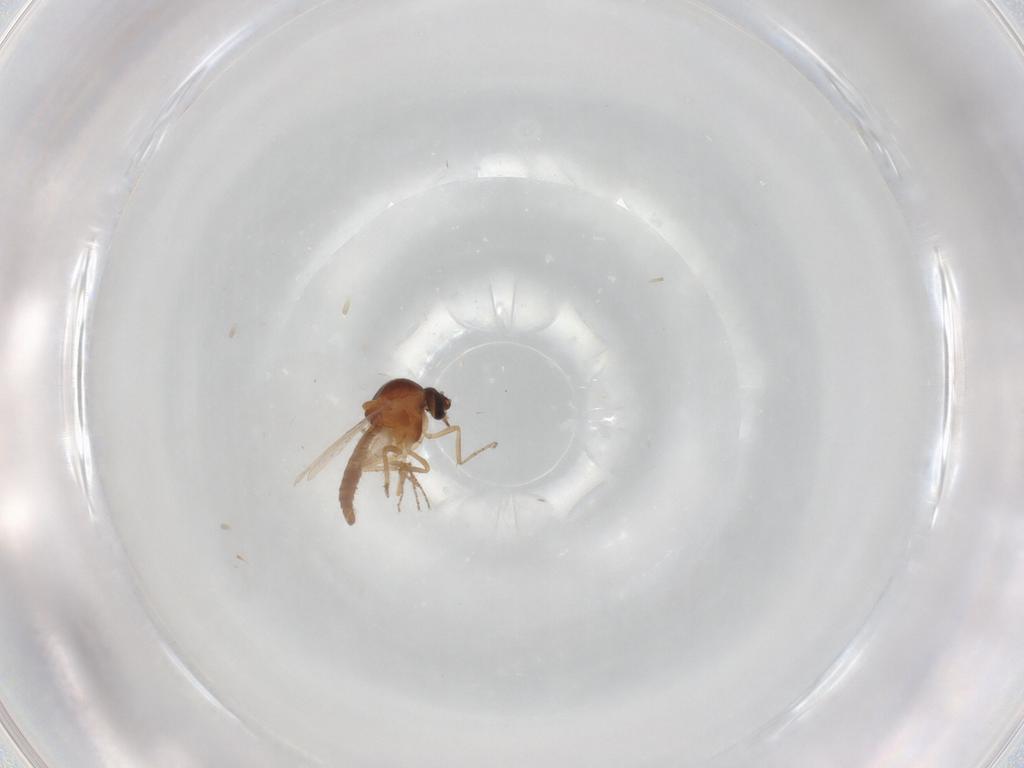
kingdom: Animalia
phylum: Arthropoda
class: Insecta
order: Diptera
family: Ceratopogonidae
